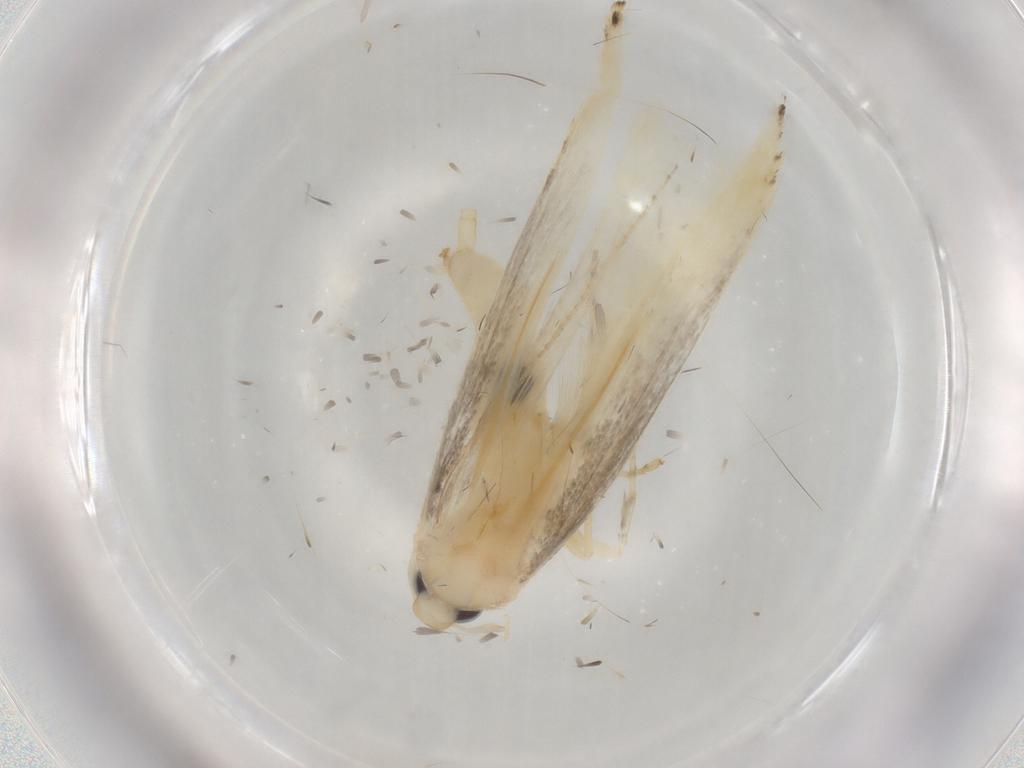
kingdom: Animalia
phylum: Arthropoda
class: Insecta
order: Lepidoptera
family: Elachistidae
